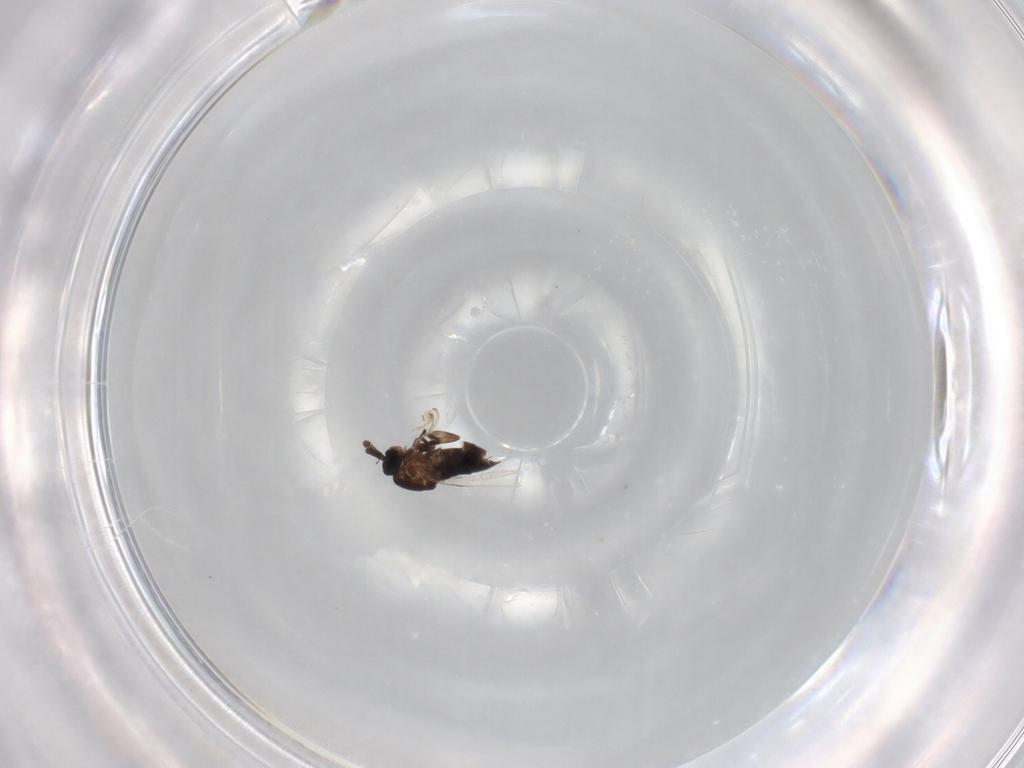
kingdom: Animalia
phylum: Arthropoda
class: Insecta
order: Diptera
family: Scatopsidae
